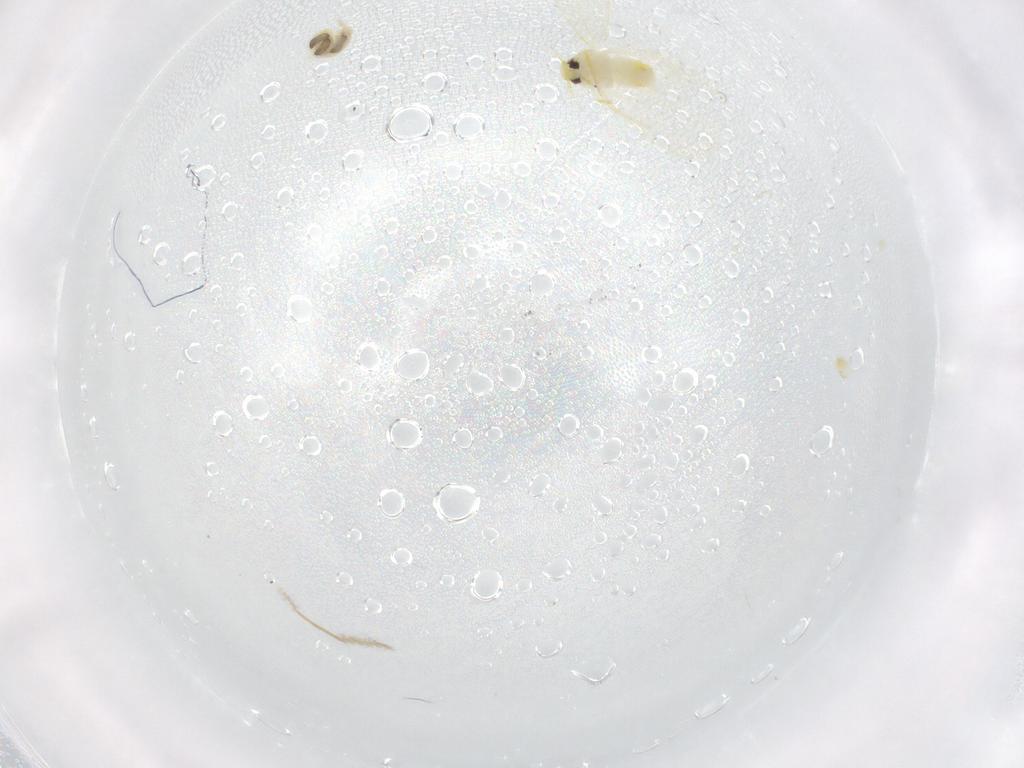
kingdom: Animalia
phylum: Arthropoda
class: Insecta
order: Hemiptera
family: Aleyrodidae
